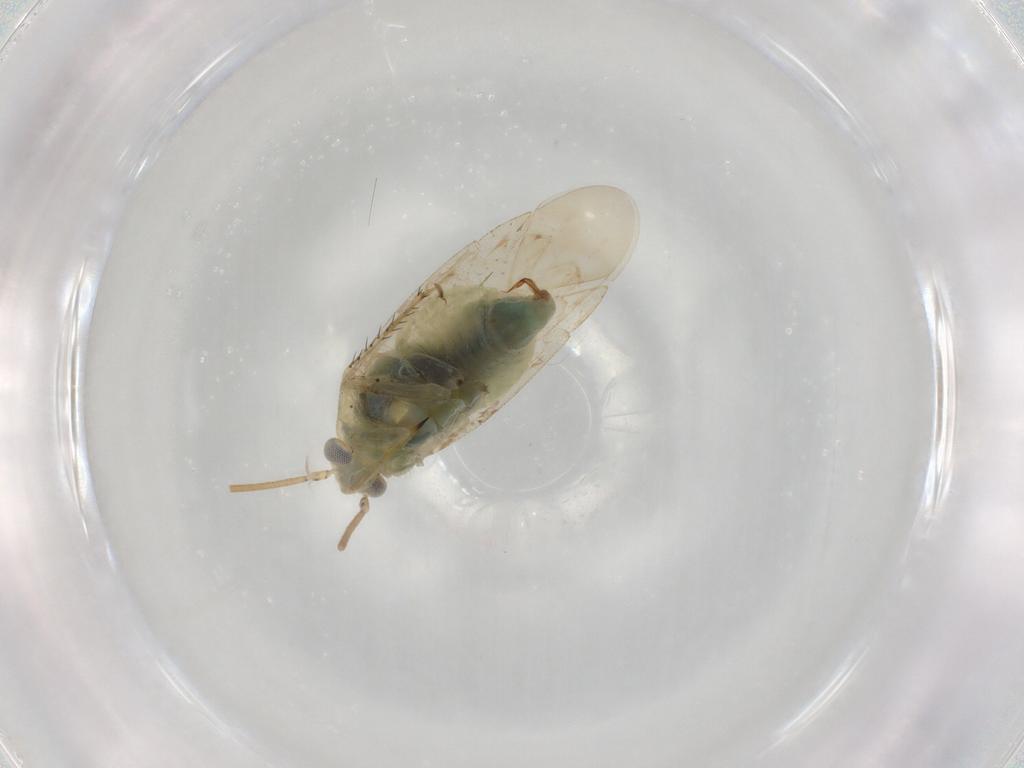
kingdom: Animalia
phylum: Arthropoda
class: Insecta
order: Hemiptera
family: Miridae
